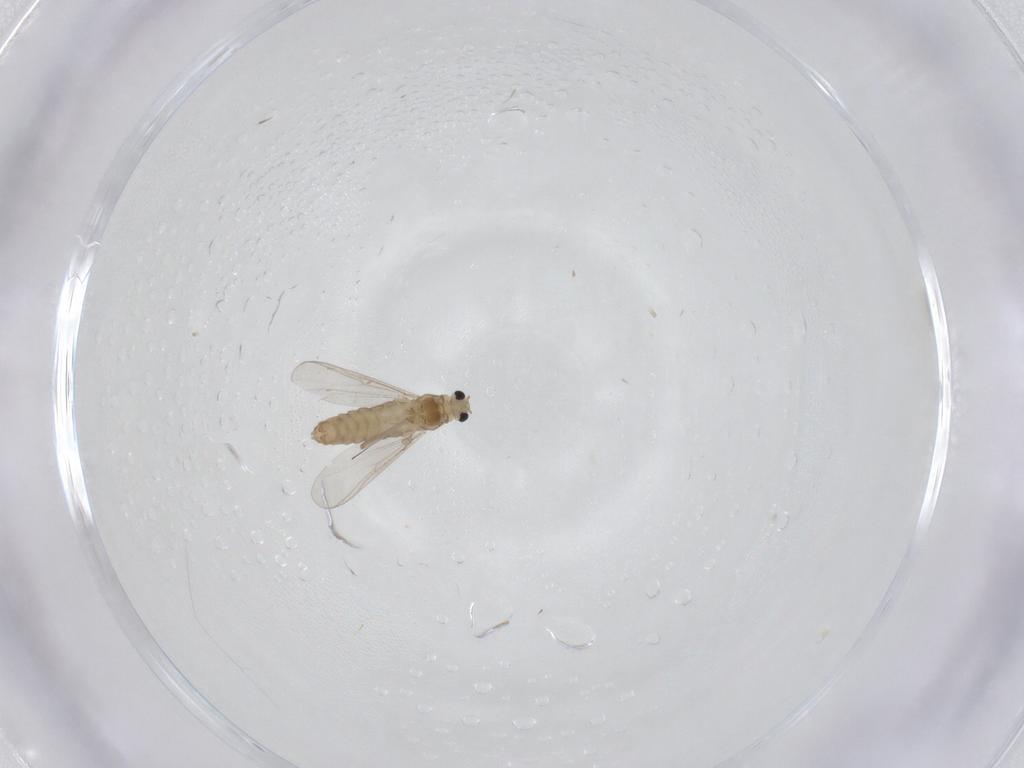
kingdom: Animalia
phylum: Arthropoda
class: Insecta
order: Diptera
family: Chironomidae
